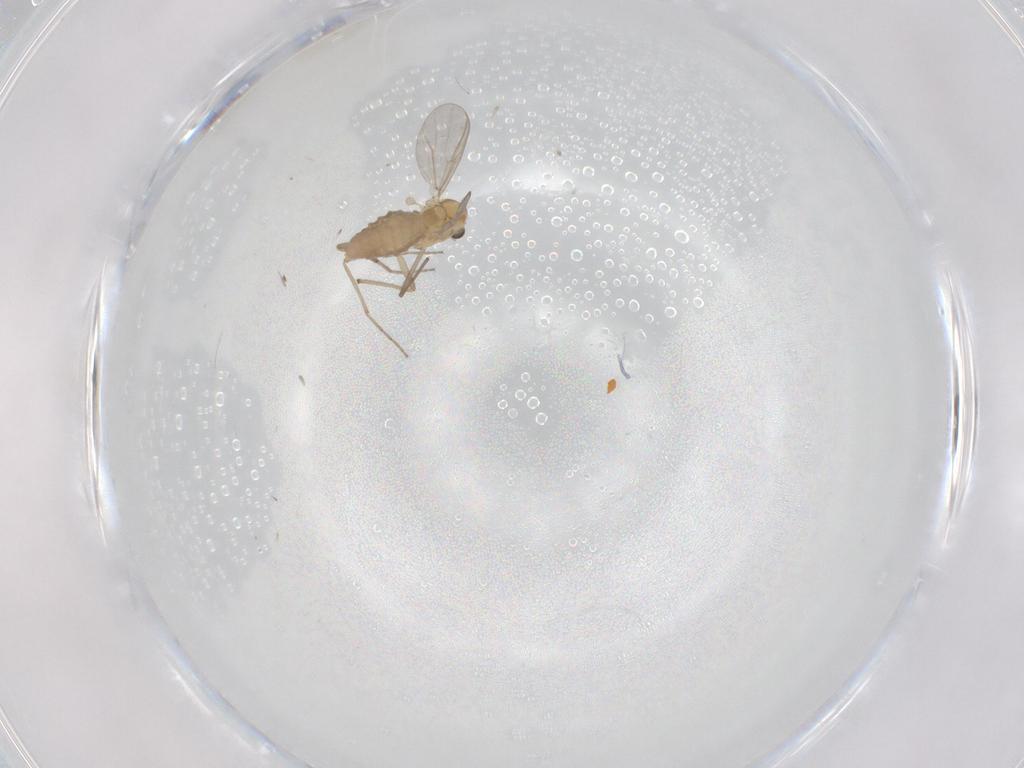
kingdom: Animalia
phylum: Arthropoda
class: Insecta
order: Diptera
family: Chironomidae
